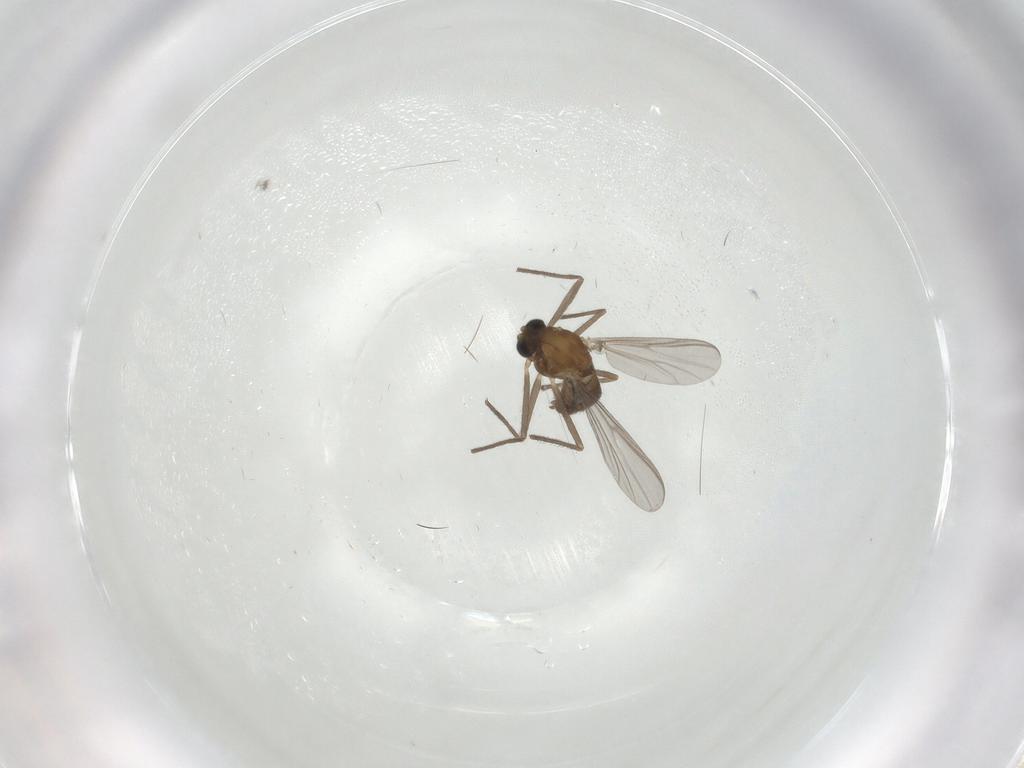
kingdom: Animalia
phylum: Arthropoda
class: Insecta
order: Diptera
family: Chironomidae
